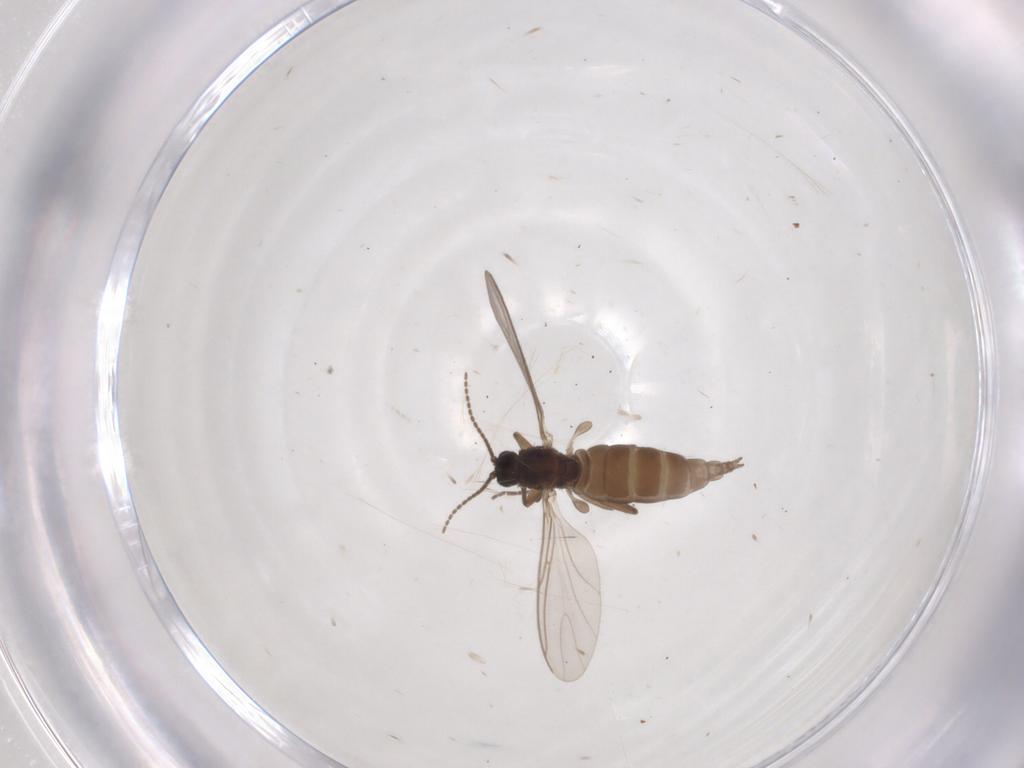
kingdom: Animalia
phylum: Arthropoda
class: Insecta
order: Diptera
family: Sciaridae
